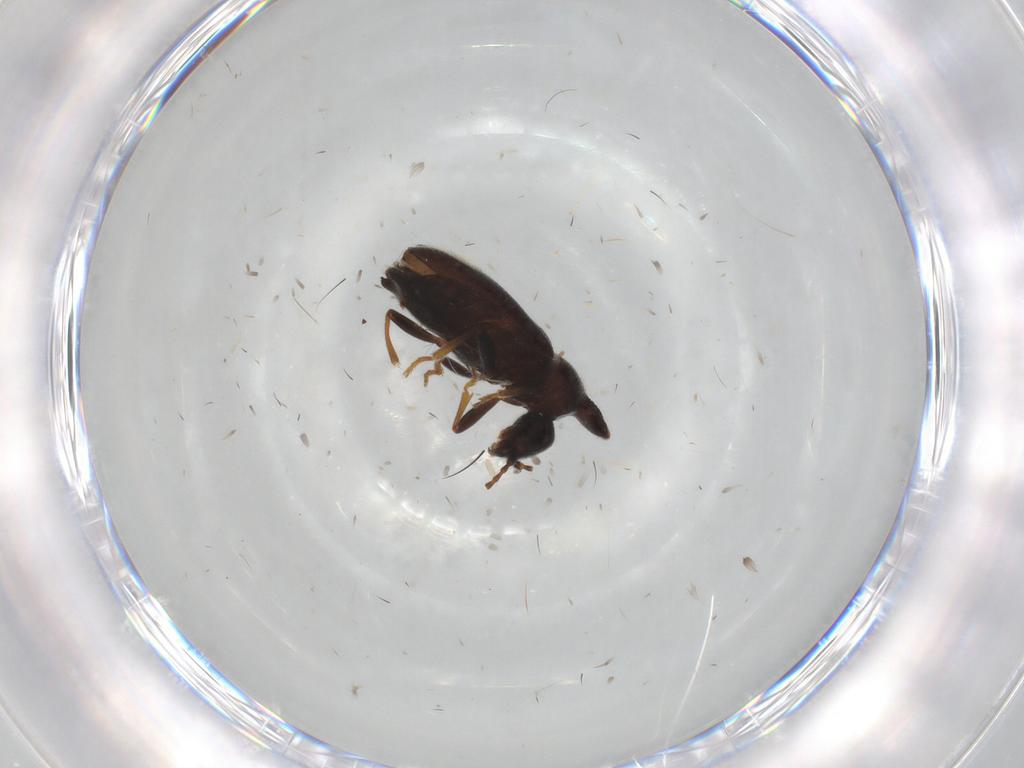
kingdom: Animalia
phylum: Arthropoda
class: Insecta
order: Coleoptera
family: Anthicidae
